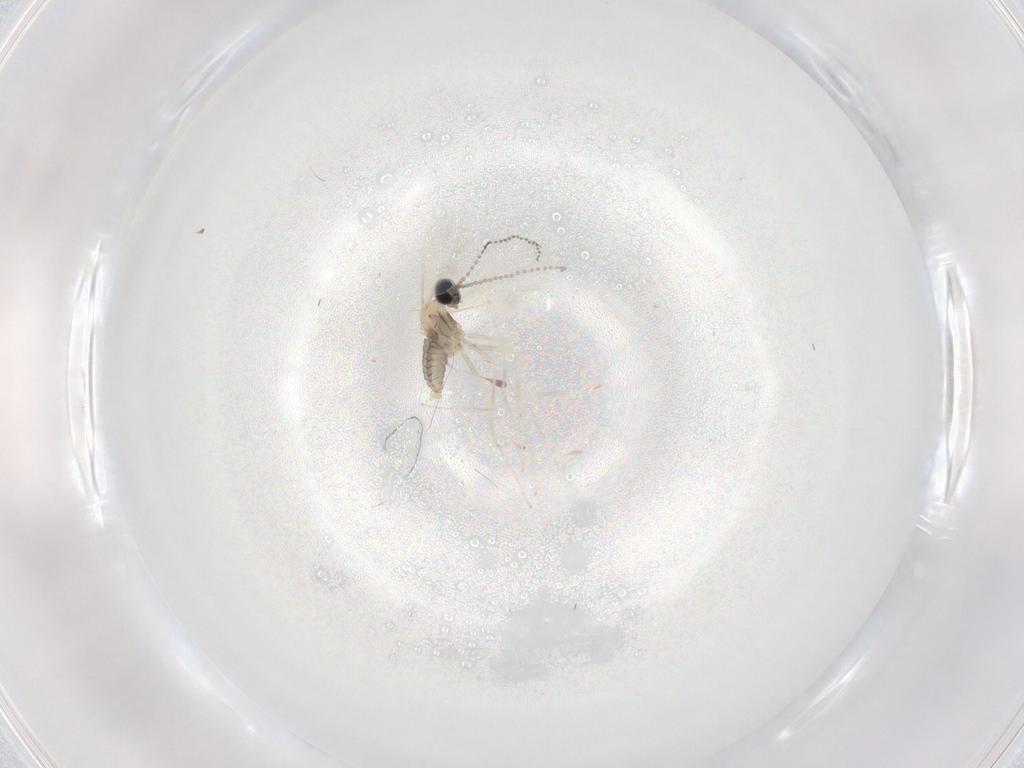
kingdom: Animalia
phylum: Arthropoda
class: Insecta
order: Diptera
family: Cecidomyiidae
